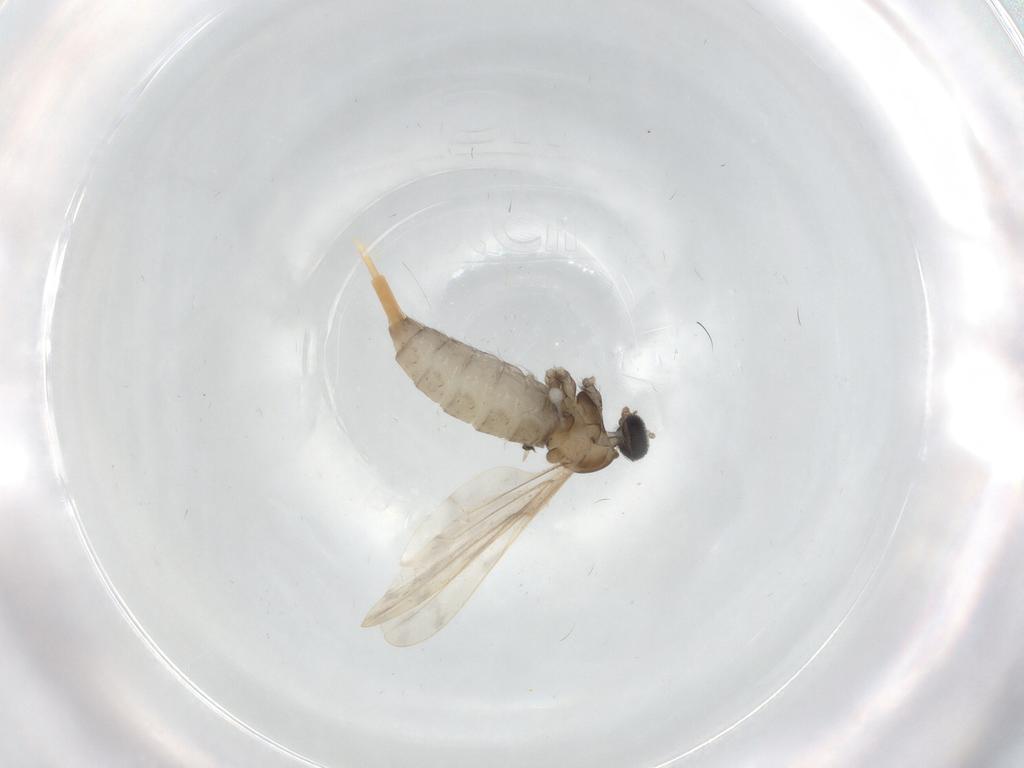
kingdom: Animalia
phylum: Arthropoda
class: Insecta
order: Diptera
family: Cecidomyiidae
